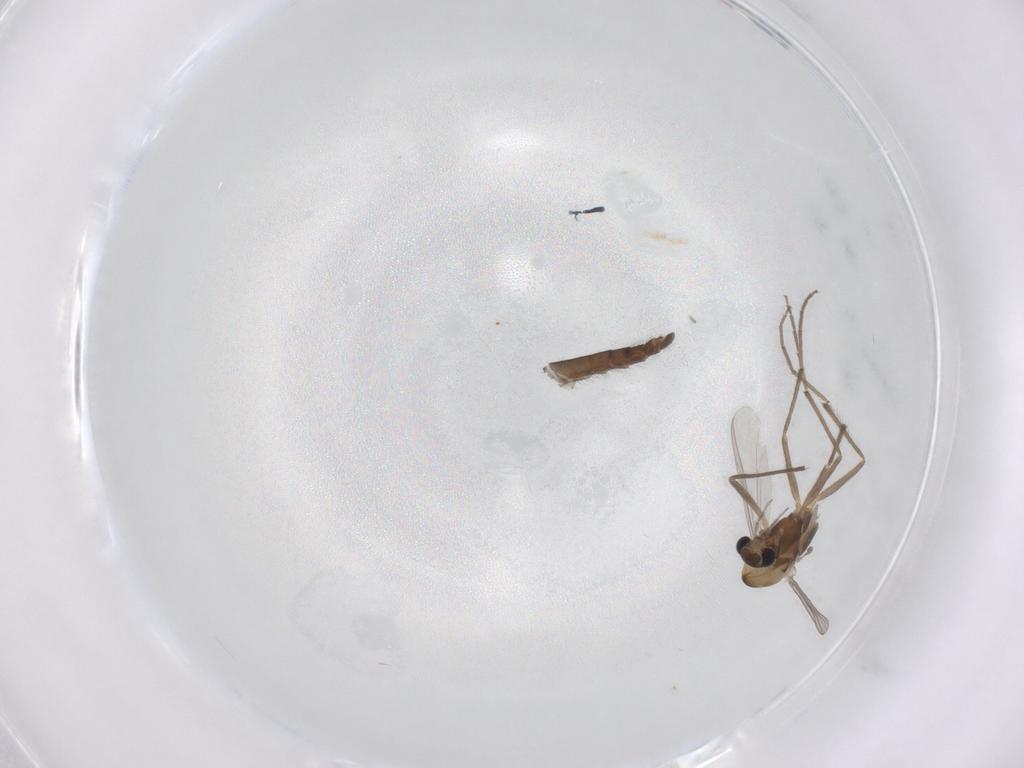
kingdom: Animalia
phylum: Arthropoda
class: Insecta
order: Diptera
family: Chironomidae
